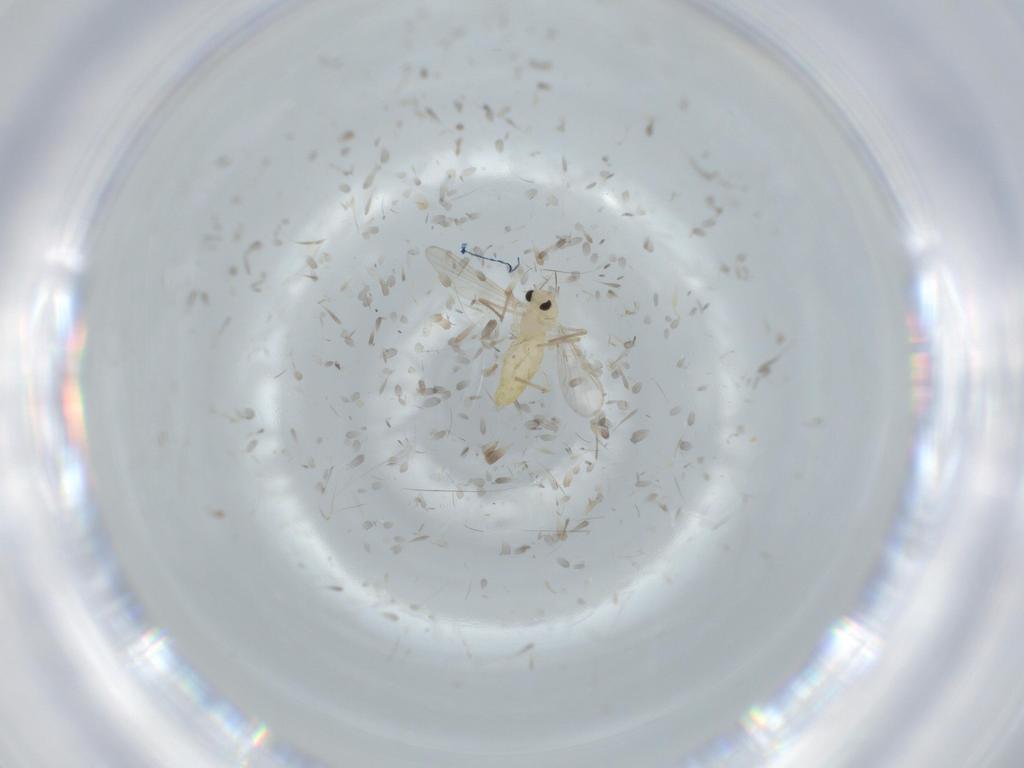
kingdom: Animalia
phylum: Arthropoda
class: Insecta
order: Diptera
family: Chironomidae
